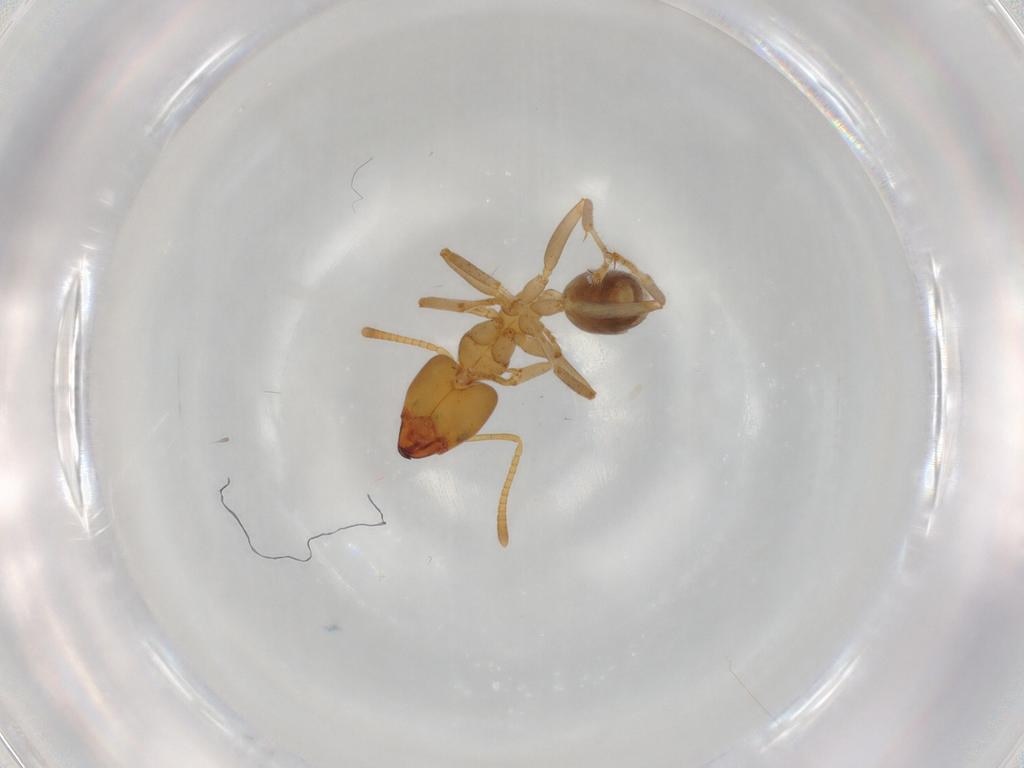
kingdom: Animalia
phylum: Arthropoda
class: Insecta
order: Hymenoptera
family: Formicidae
